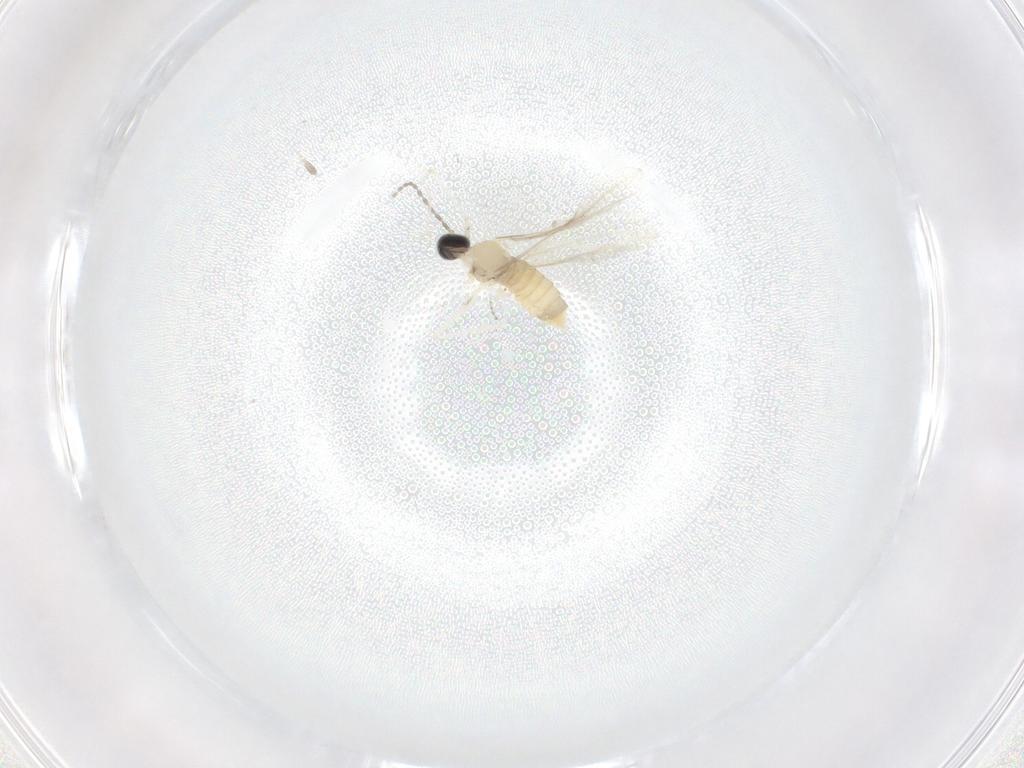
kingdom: Animalia
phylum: Arthropoda
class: Insecta
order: Diptera
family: Cecidomyiidae
